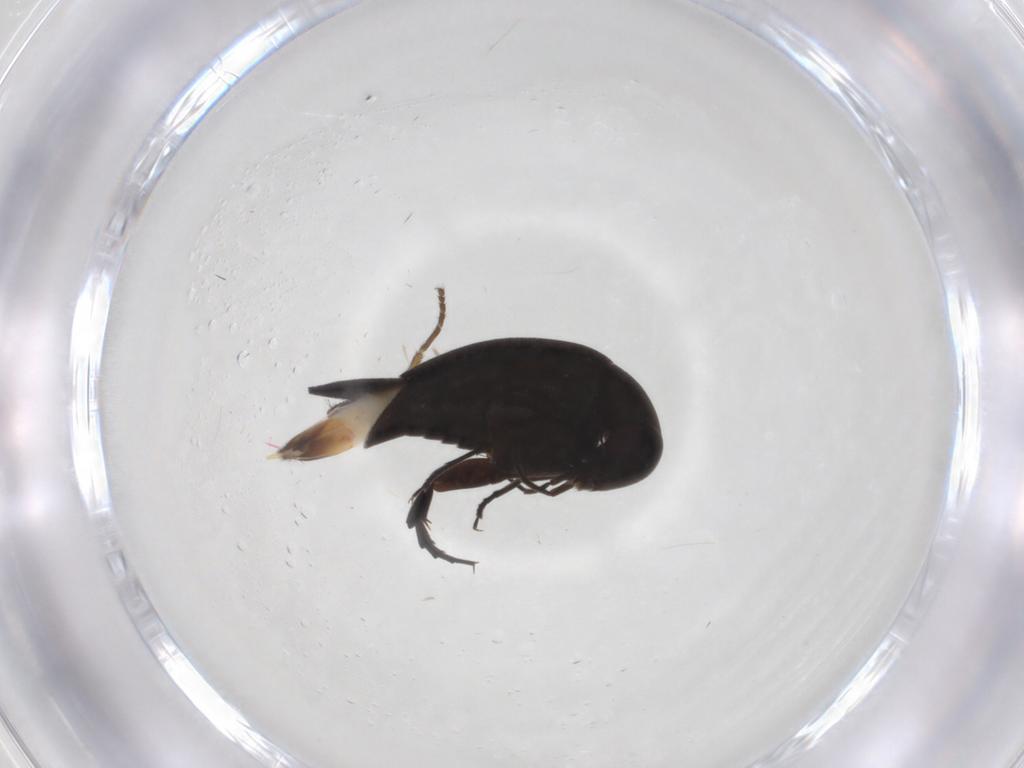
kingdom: Animalia
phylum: Arthropoda
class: Insecta
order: Coleoptera
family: Mordellidae
